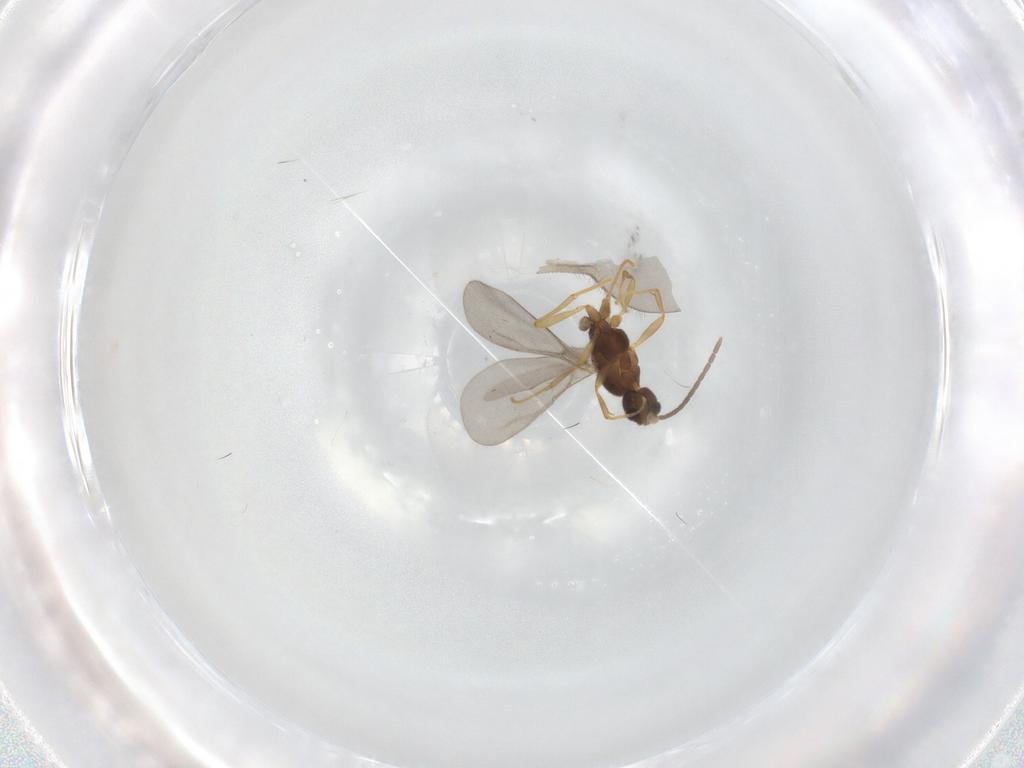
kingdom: Animalia
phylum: Arthropoda
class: Insecta
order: Hymenoptera
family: Formicidae
